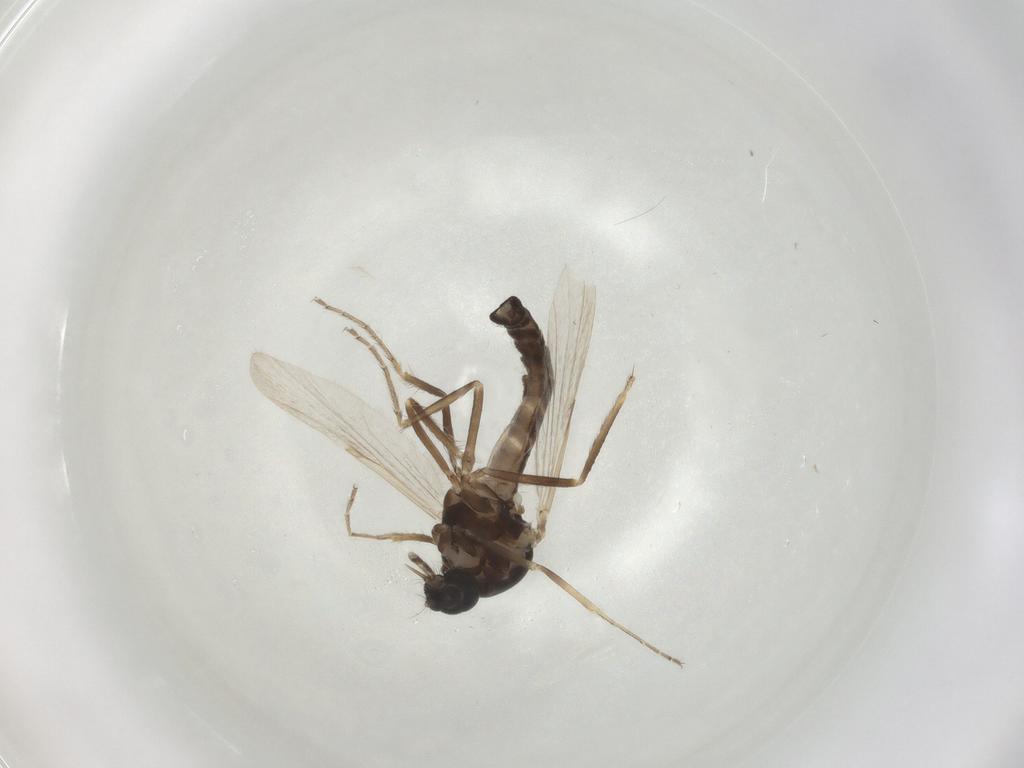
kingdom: Animalia
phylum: Arthropoda
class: Insecta
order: Diptera
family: Ceratopogonidae
